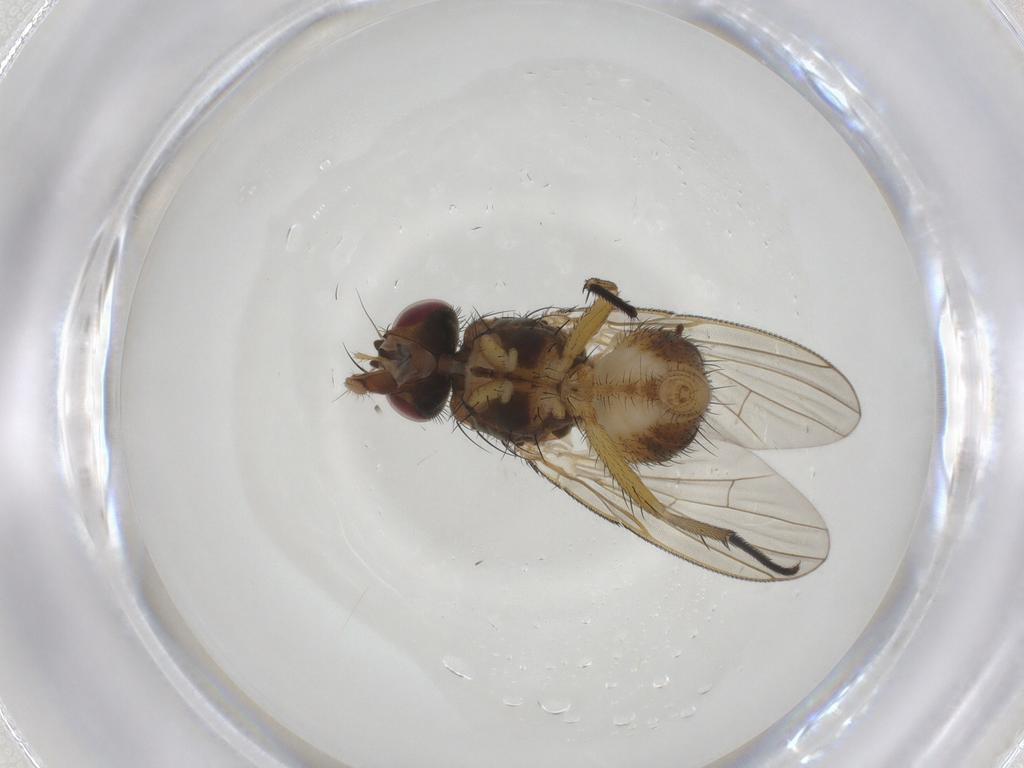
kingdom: Animalia
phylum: Arthropoda
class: Insecta
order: Diptera
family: Fanniidae
